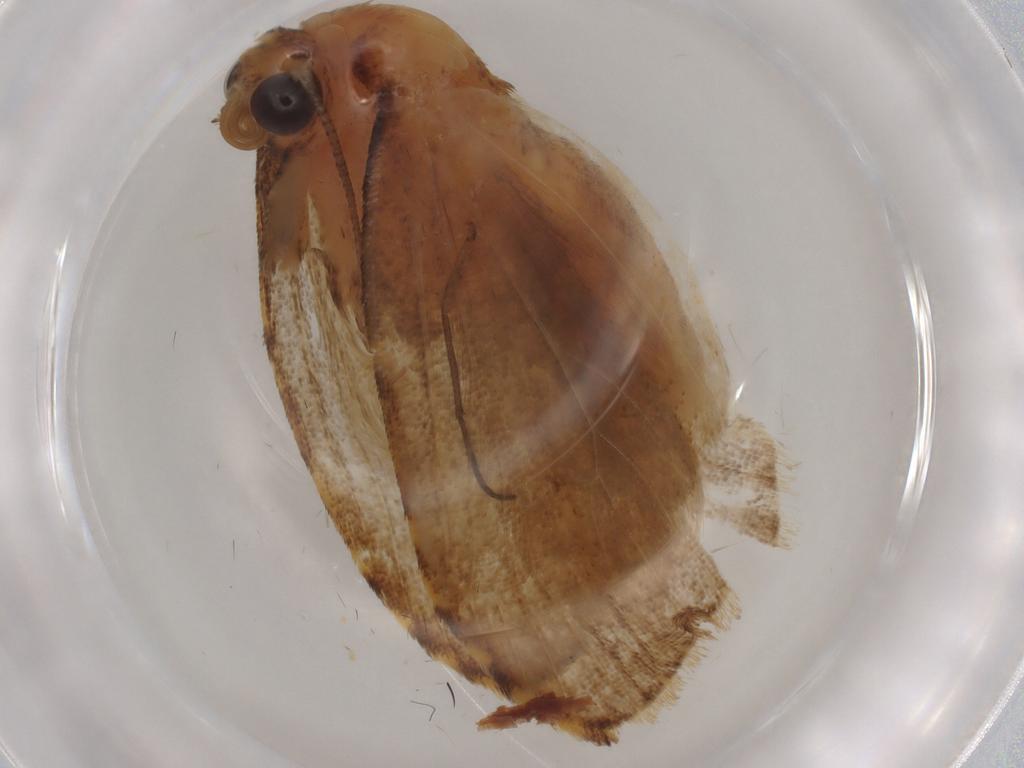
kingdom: Animalia
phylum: Arthropoda
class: Insecta
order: Lepidoptera
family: Erebidae
